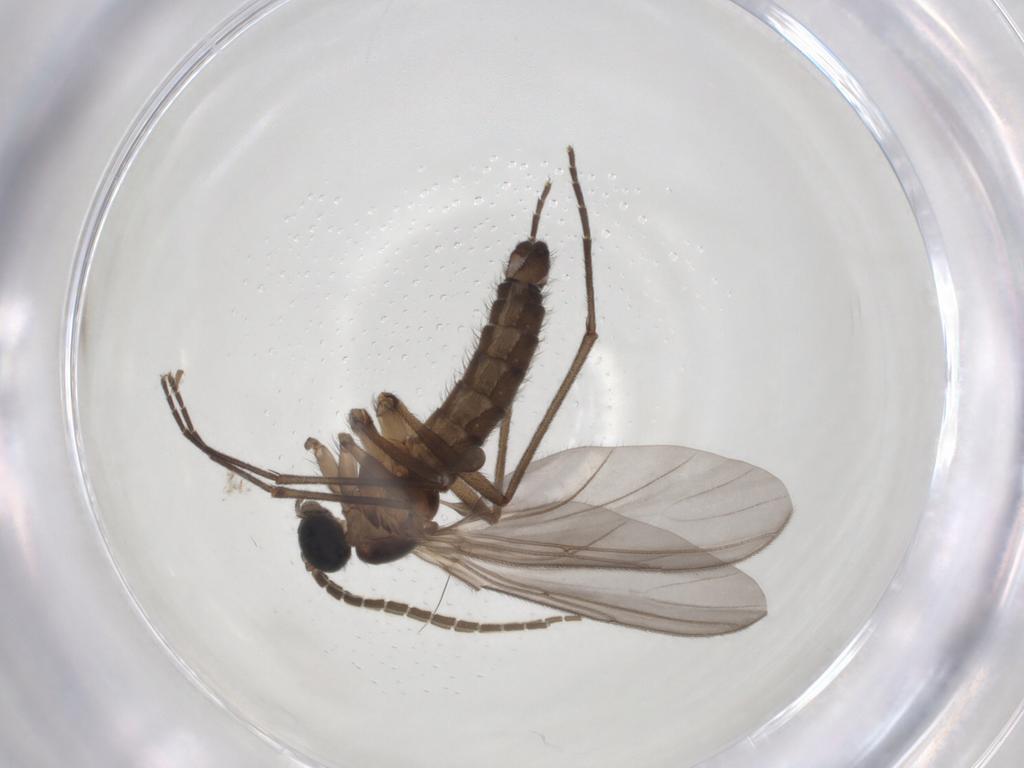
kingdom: Animalia
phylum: Arthropoda
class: Insecta
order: Diptera
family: Sciaridae
